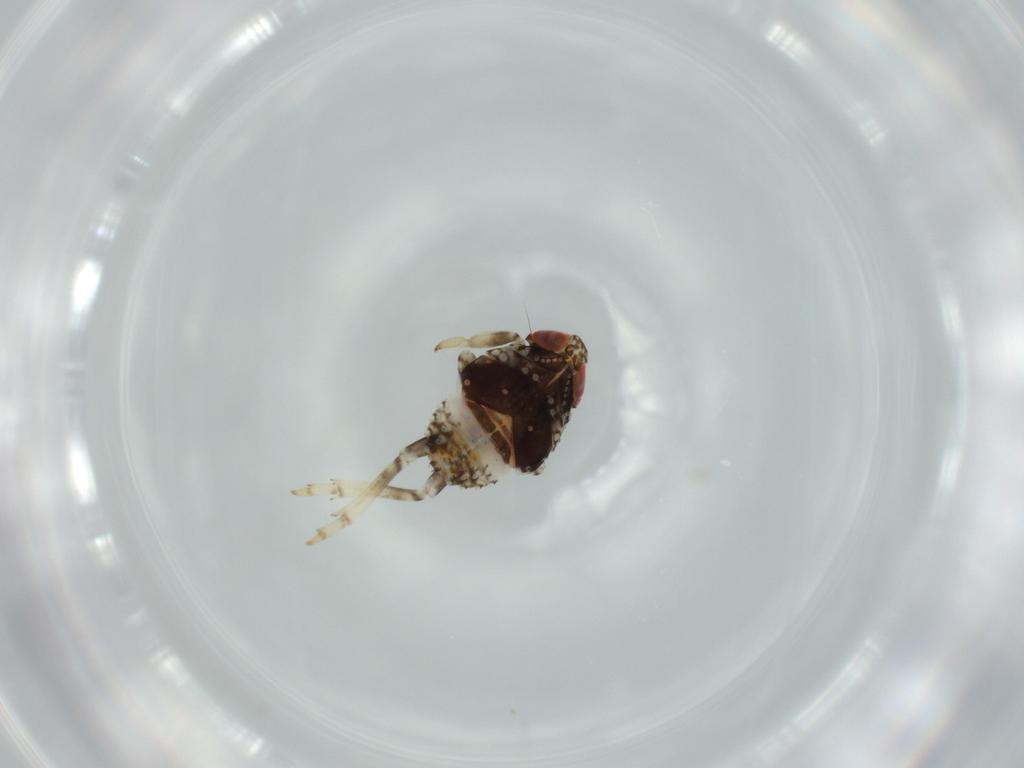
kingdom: Animalia
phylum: Arthropoda
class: Insecta
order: Hemiptera
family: Issidae
